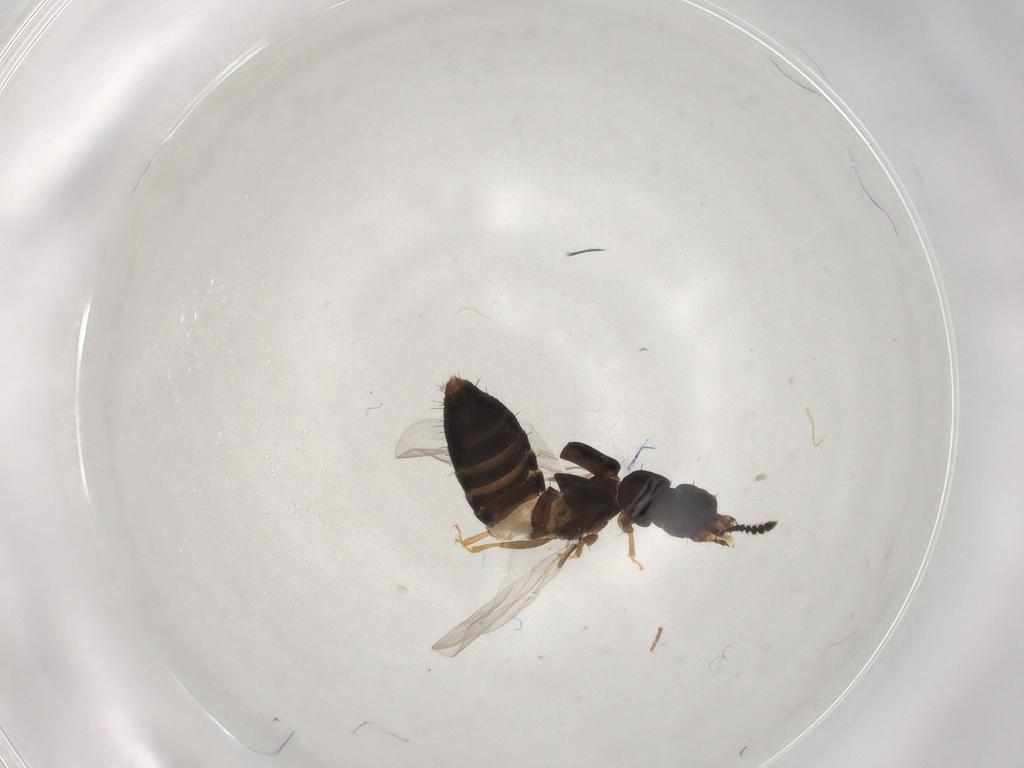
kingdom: Animalia
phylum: Arthropoda
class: Insecta
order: Coleoptera
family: Staphylinidae
